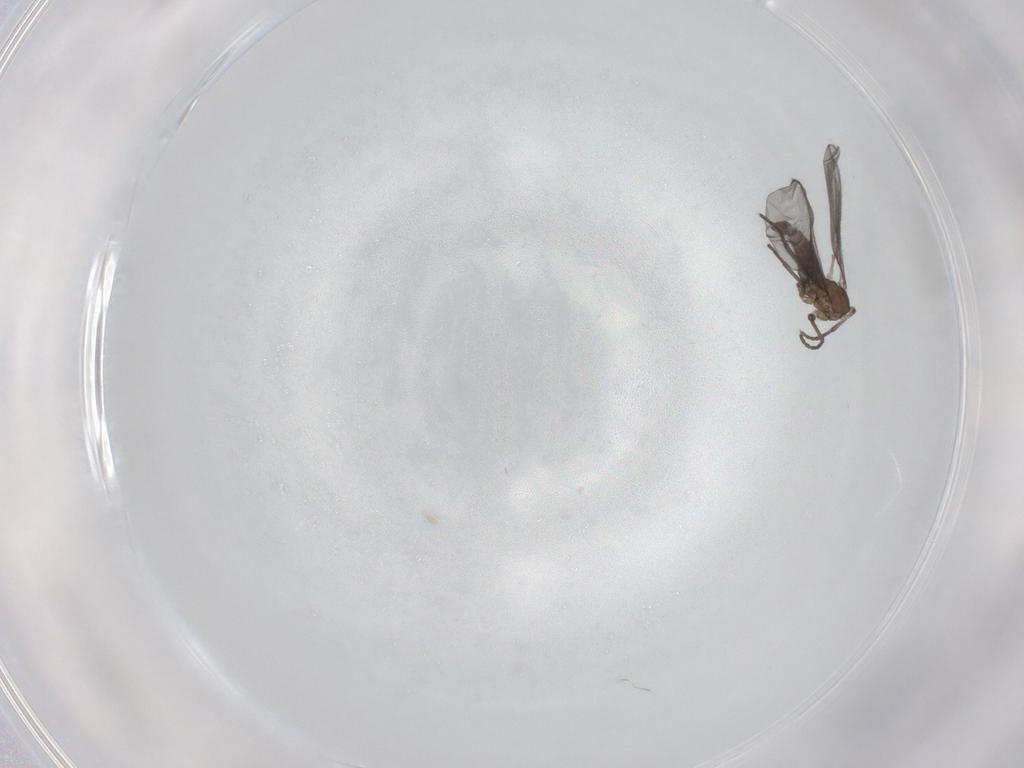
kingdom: Animalia
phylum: Arthropoda
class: Insecta
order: Diptera
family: Sciaridae
